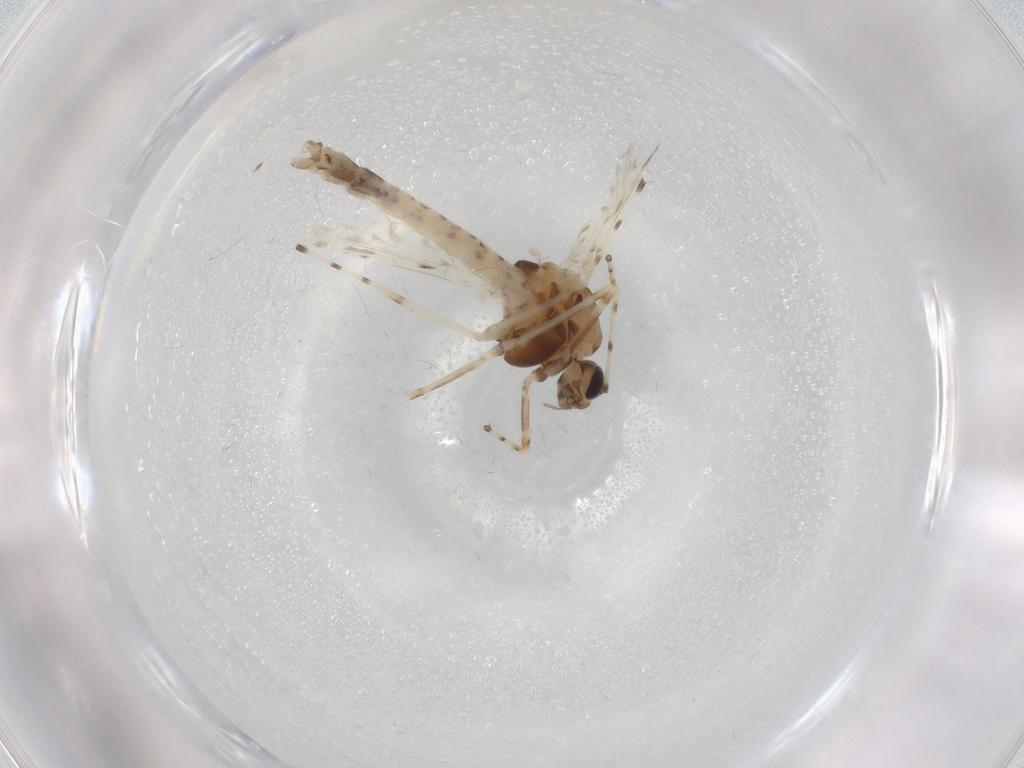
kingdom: Animalia
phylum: Arthropoda
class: Insecta
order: Diptera
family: Chironomidae
